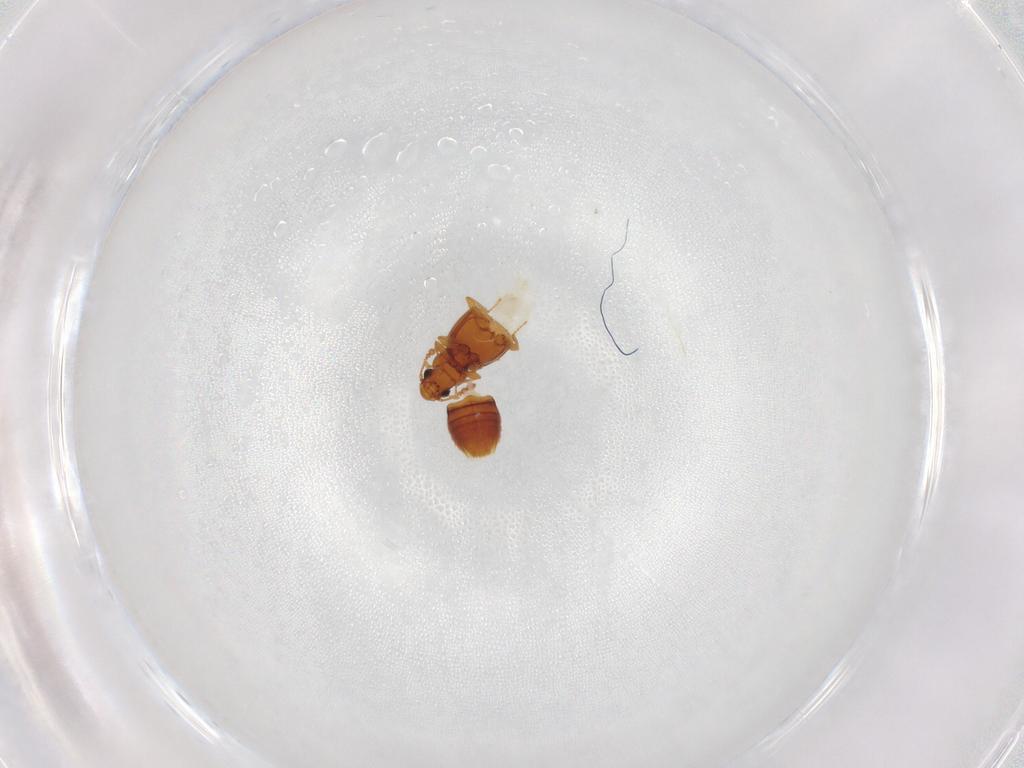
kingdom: Animalia
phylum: Arthropoda
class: Insecta
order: Coleoptera
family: Staphylinidae
